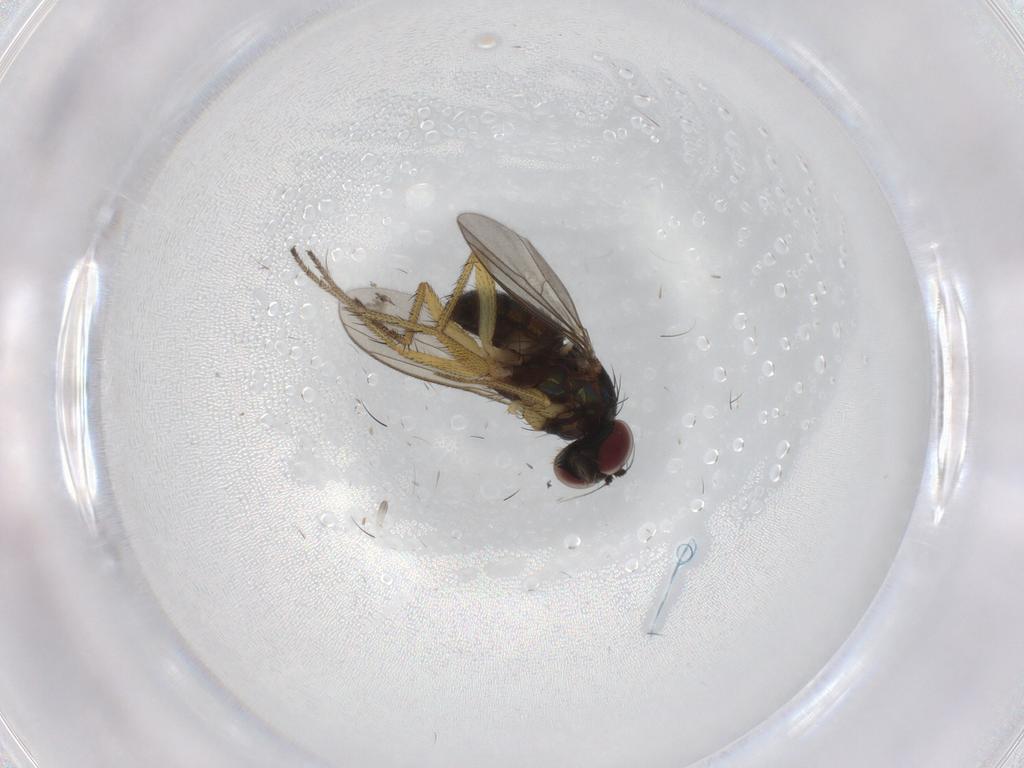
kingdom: Animalia
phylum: Arthropoda
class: Insecta
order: Diptera
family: Dolichopodidae
